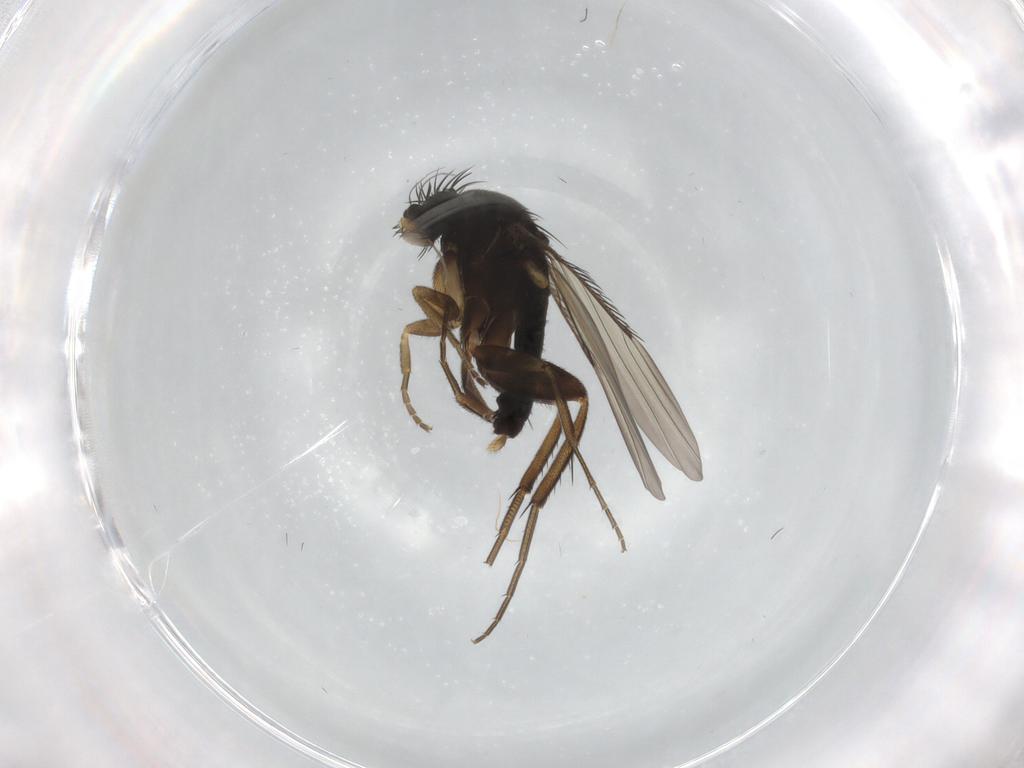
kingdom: Animalia
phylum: Arthropoda
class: Insecta
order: Diptera
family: Phoridae
